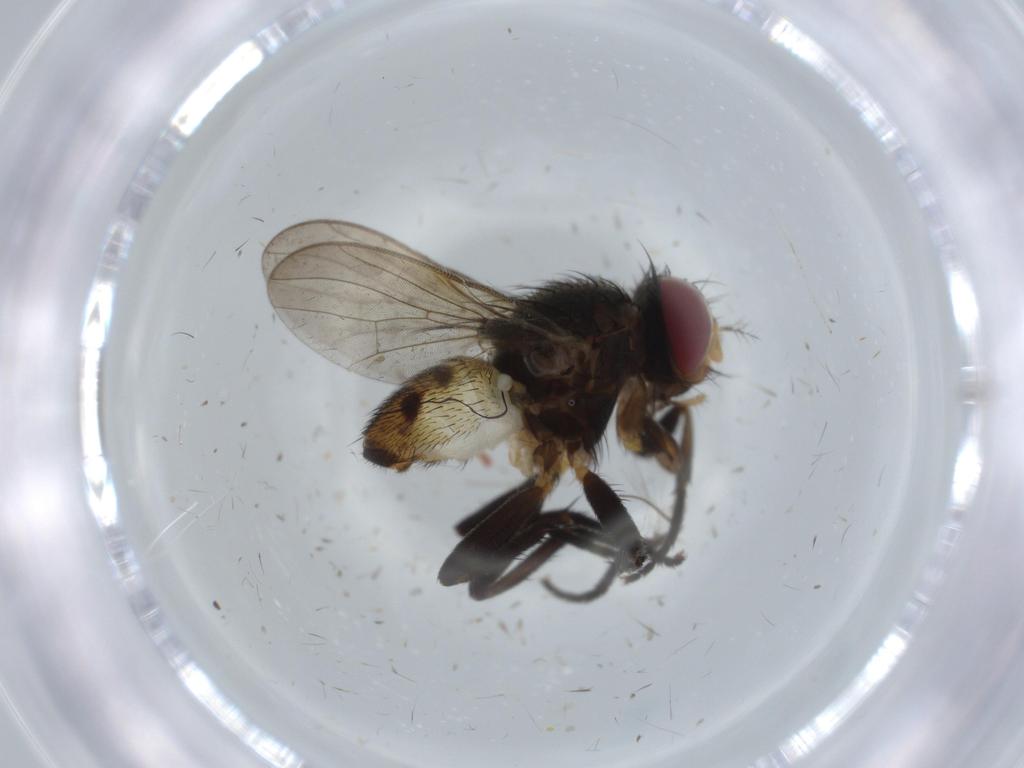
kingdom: Animalia
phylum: Arthropoda
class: Insecta
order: Diptera
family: Anthomyiidae
